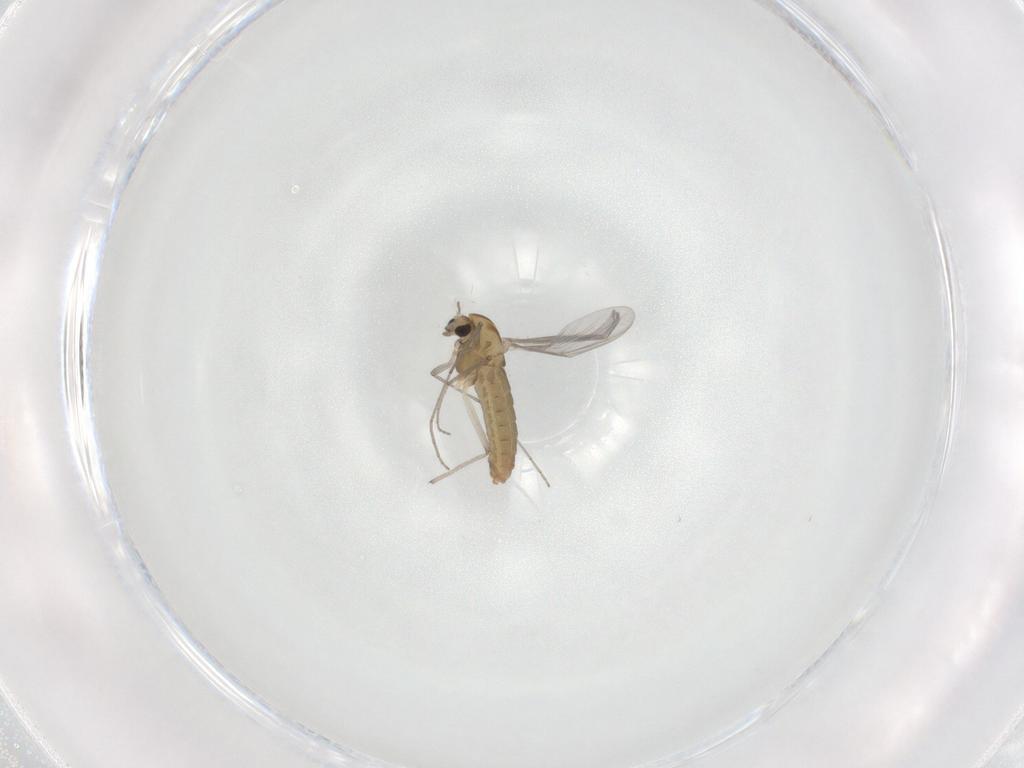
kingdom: Animalia
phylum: Arthropoda
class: Insecta
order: Diptera
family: Chironomidae
